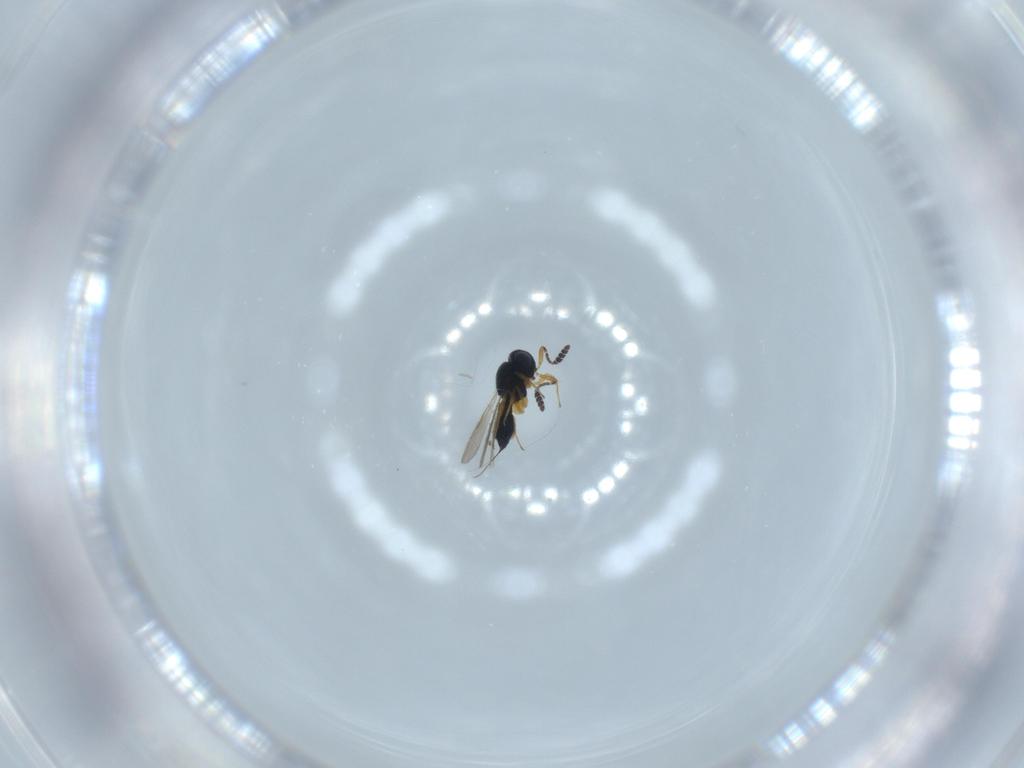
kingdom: Animalia
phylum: Arthropoda
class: Insecta
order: Hymenoptera
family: Scelionidae
